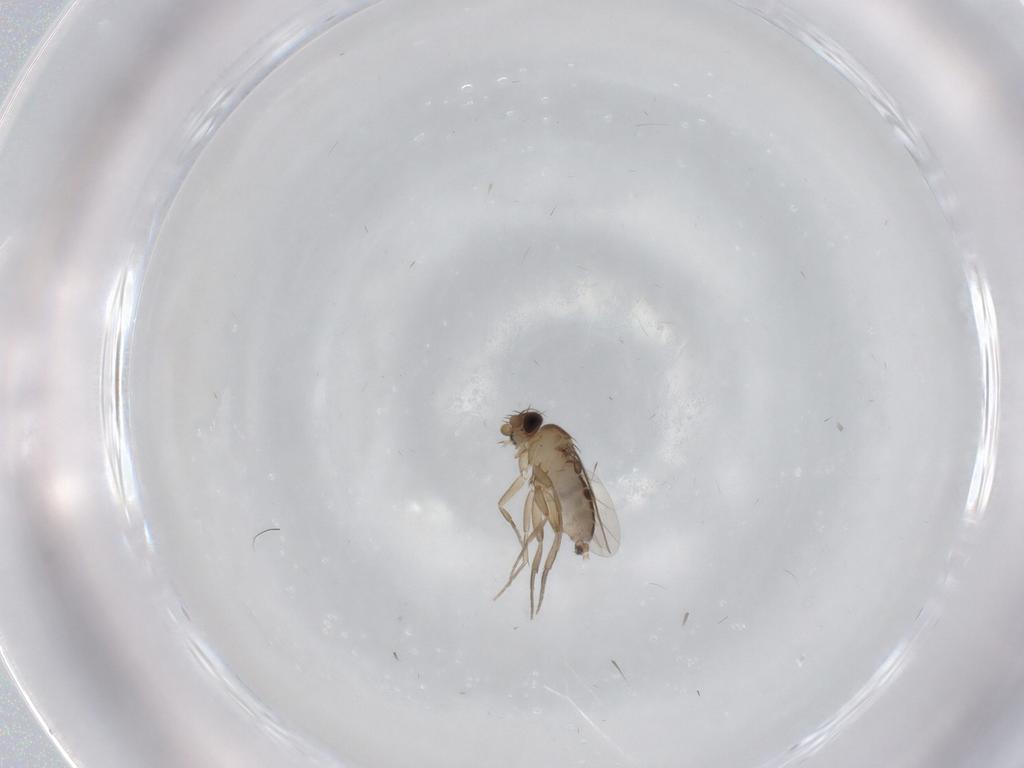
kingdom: Animalia
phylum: Arthropoda
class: Insecta
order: Diptera
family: Phoridae
